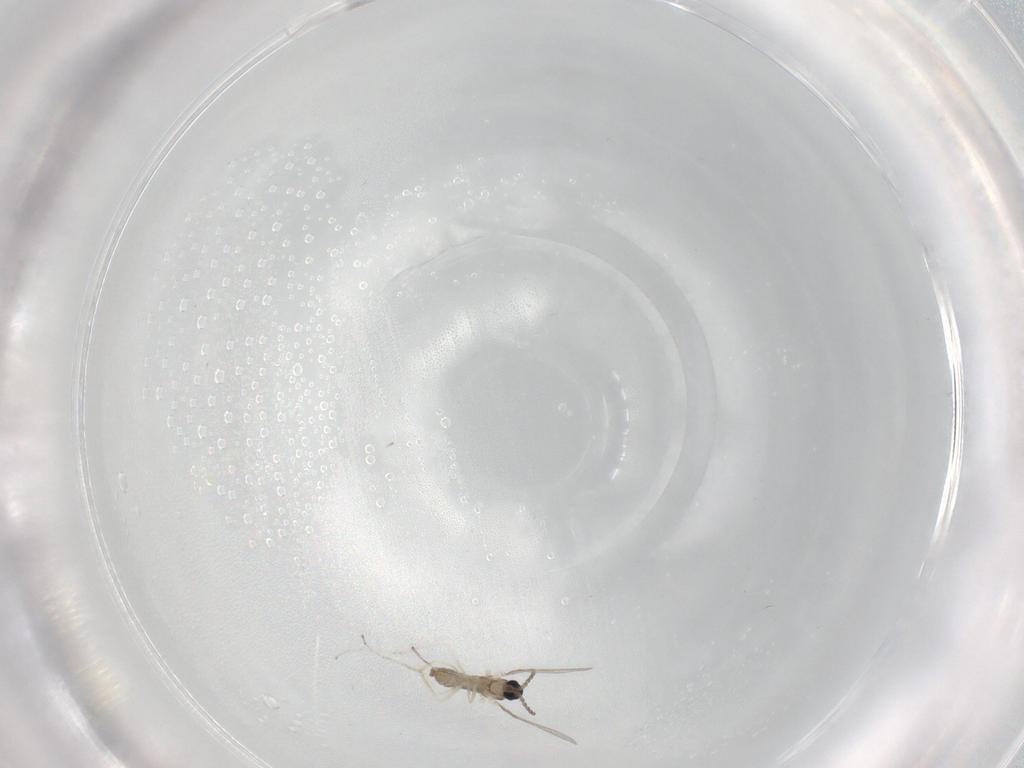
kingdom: Animalia
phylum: Arthropoda
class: Insecta
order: Diptera
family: Cecidomyiidae
